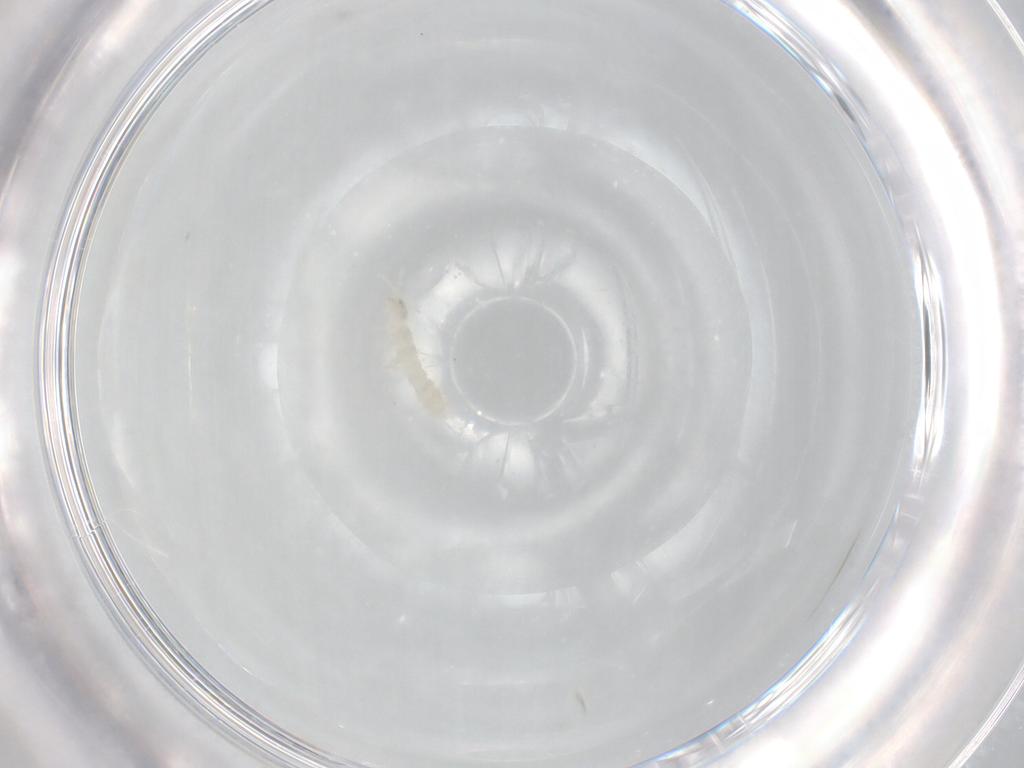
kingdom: Animalia
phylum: Arthropoda
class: Collembola
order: Entomobryomorpha
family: Isotomidae
